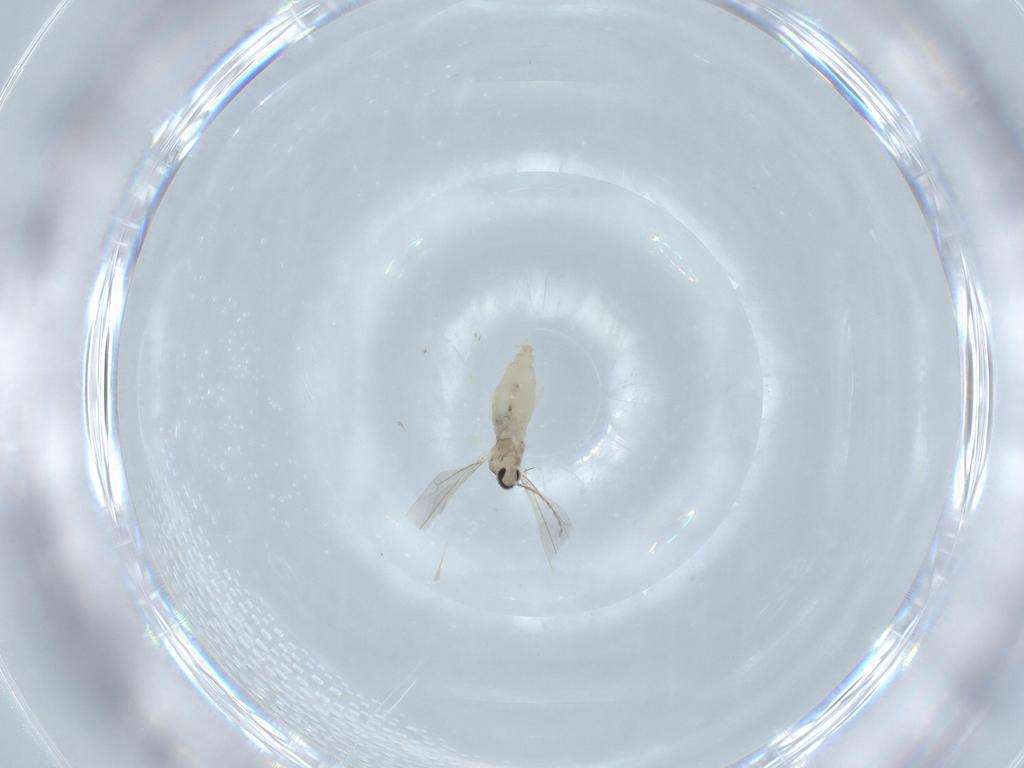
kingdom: Animalia
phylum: Arthropoda
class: Insecta
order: Diptera
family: Cecidomyiidae
